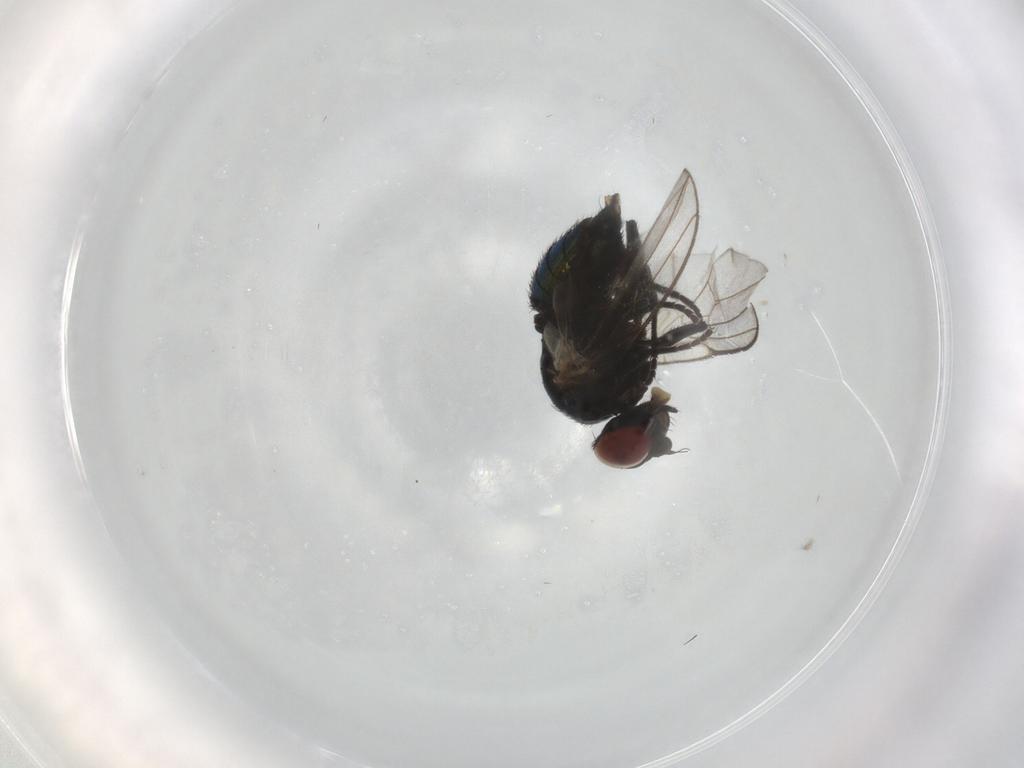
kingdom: Animalia
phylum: Arthropoda
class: Insecta
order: Diptera
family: Agromyzidae
